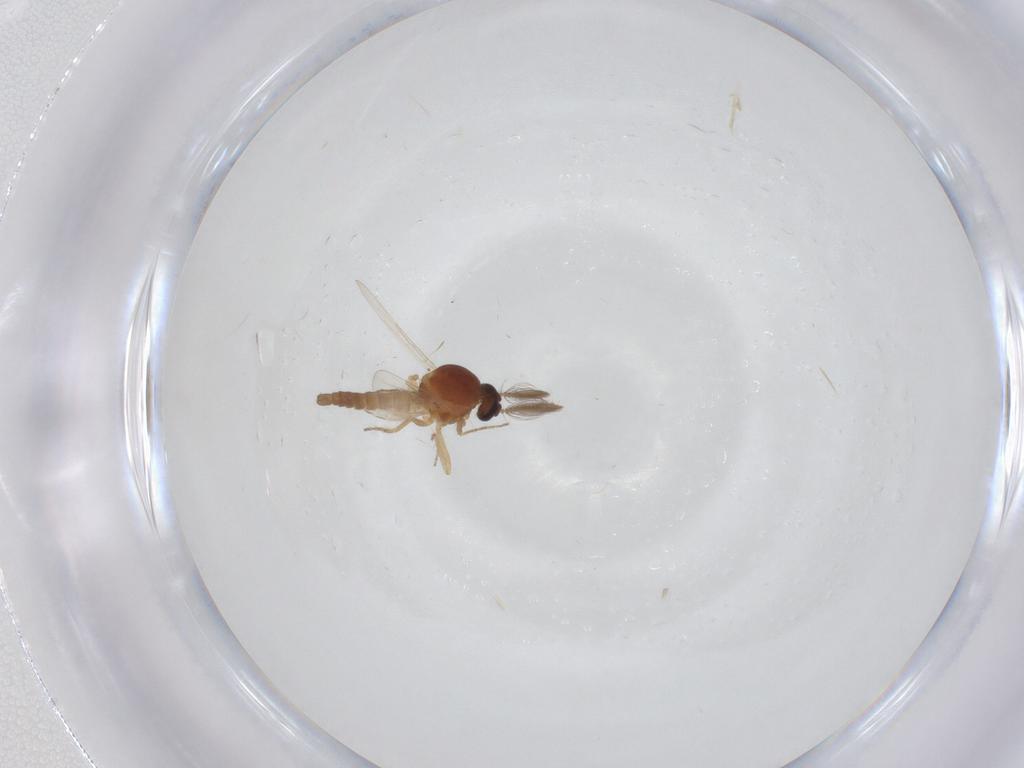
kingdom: Animalia
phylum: Arthropoda
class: Insecta
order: Diptera
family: Ceratopogonidae
